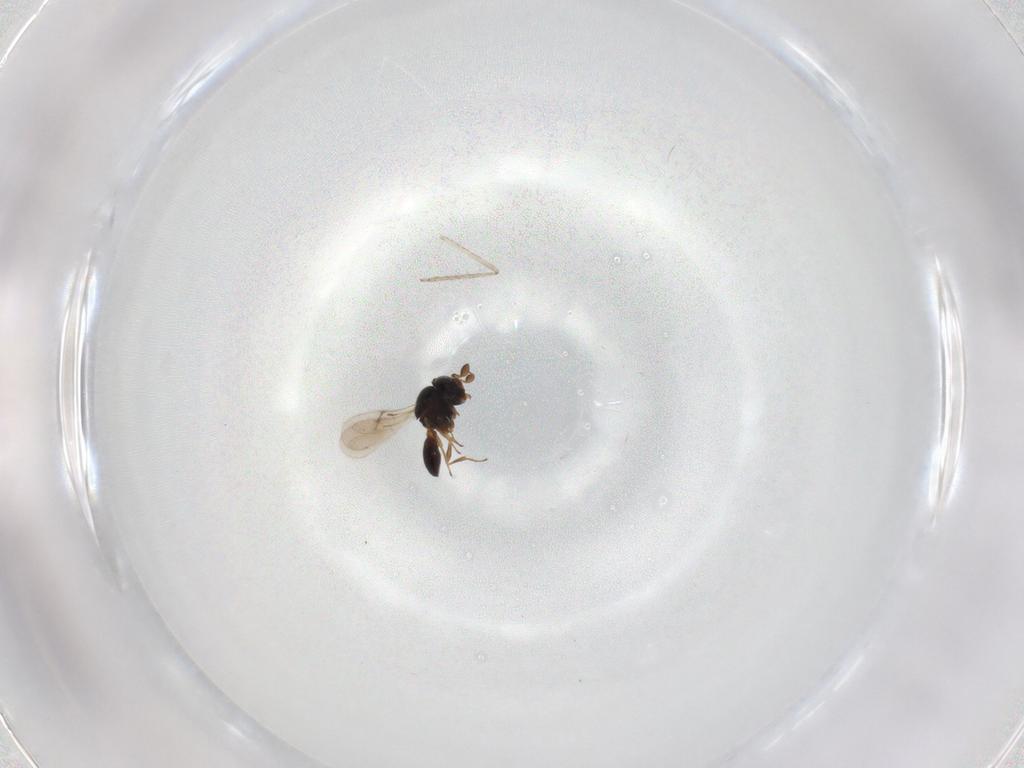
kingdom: Animalia
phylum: Arthropoda
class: Insecta
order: Hymenoptera
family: Scelionidae
